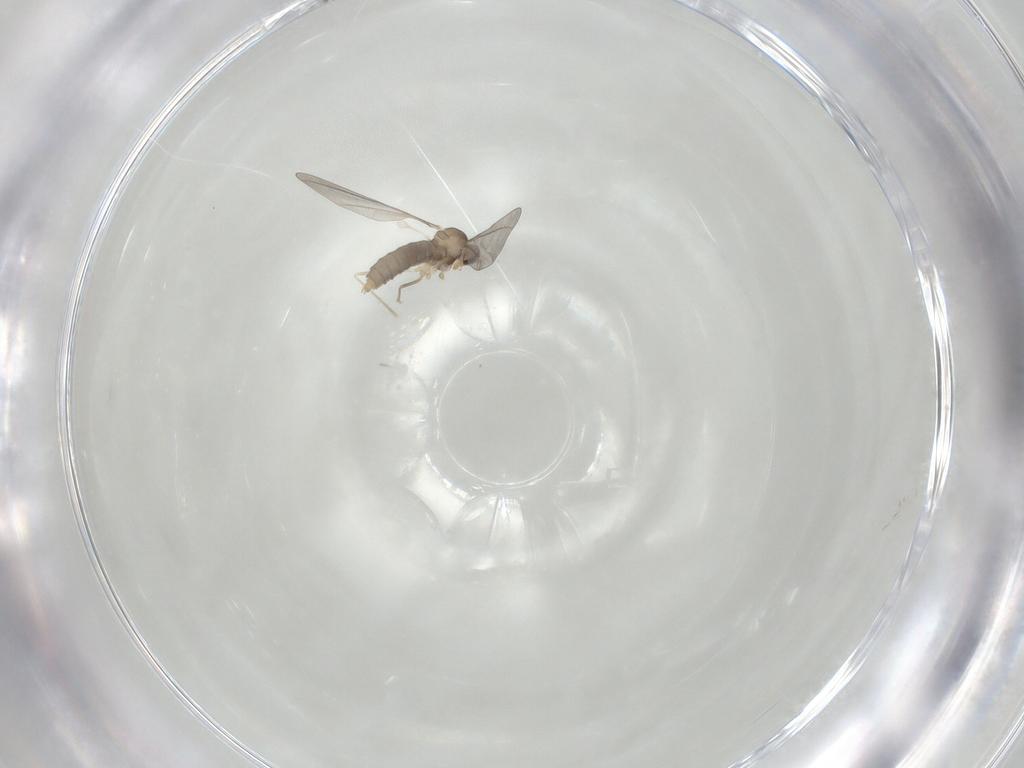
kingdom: Animalia
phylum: Arthropoda
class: Insecta
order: Diptera
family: Cecidomyiidae
